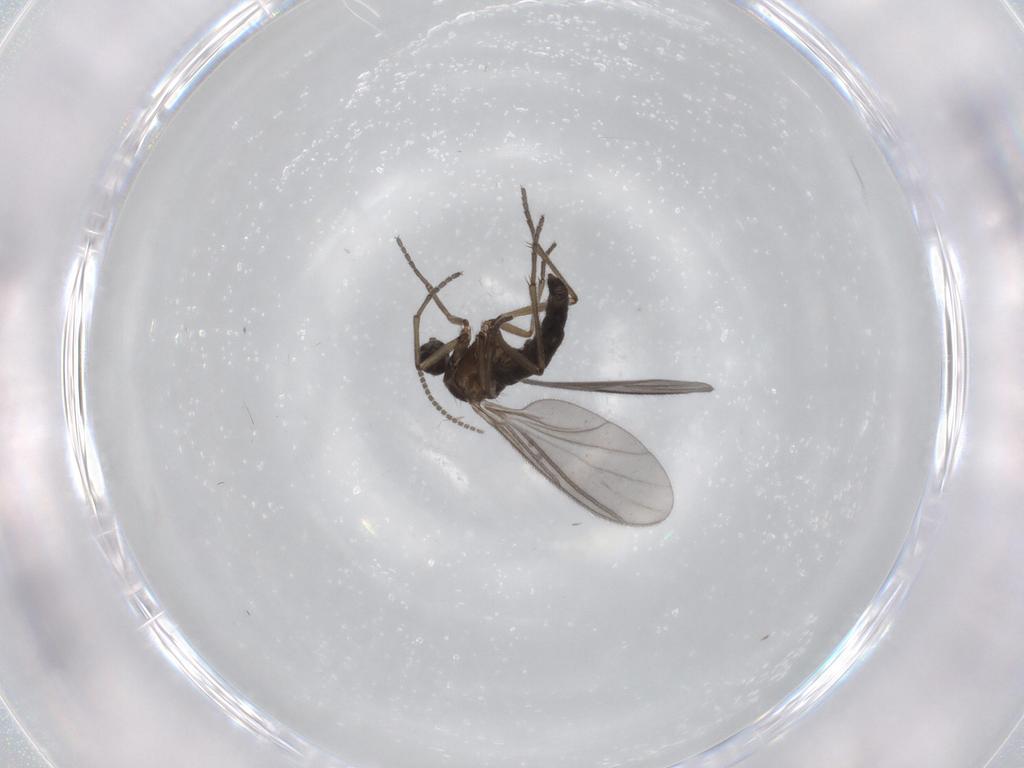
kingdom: Animalia
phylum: Arthropoda
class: Insecta
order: Diptera
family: Sciaridae
